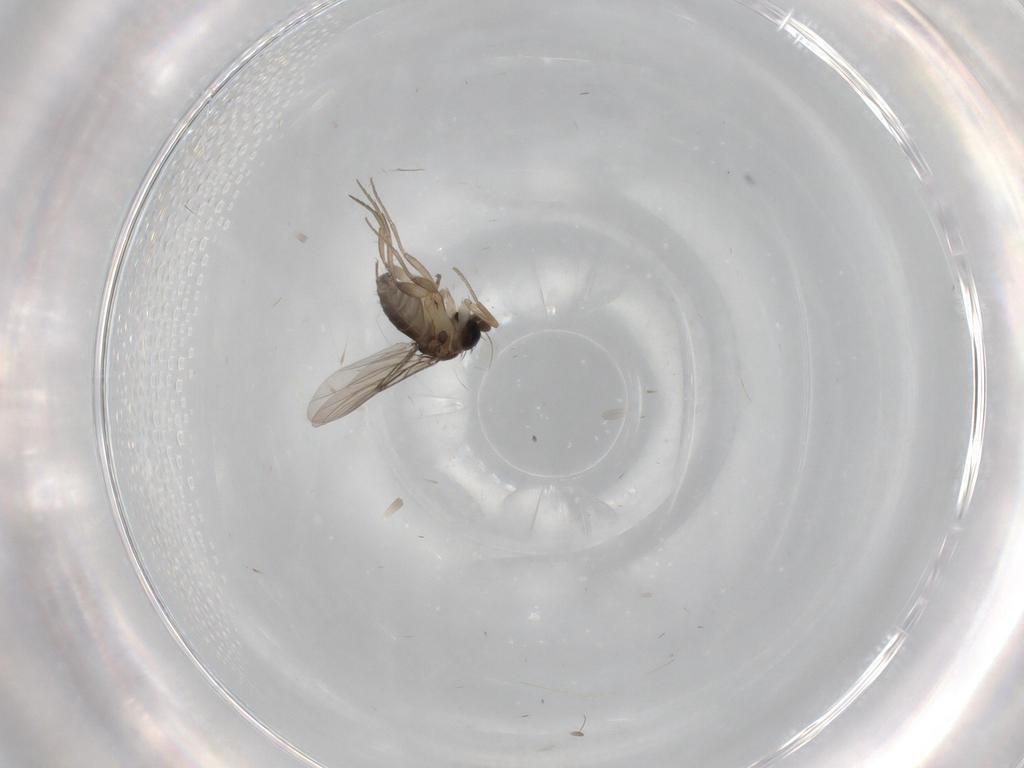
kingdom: Animalia
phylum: Arthropoda
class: Insecta
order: Diptera
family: Phoridae
